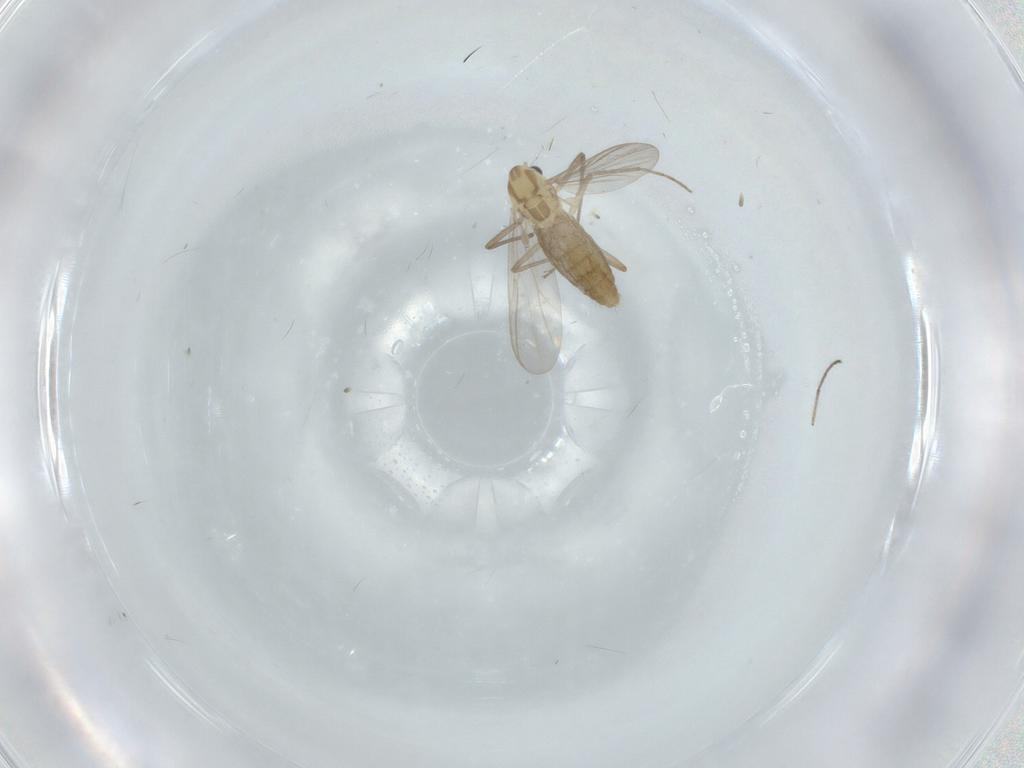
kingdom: Animalia
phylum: Arthropoda
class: Insecta
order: Diptera
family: Chironomidae
